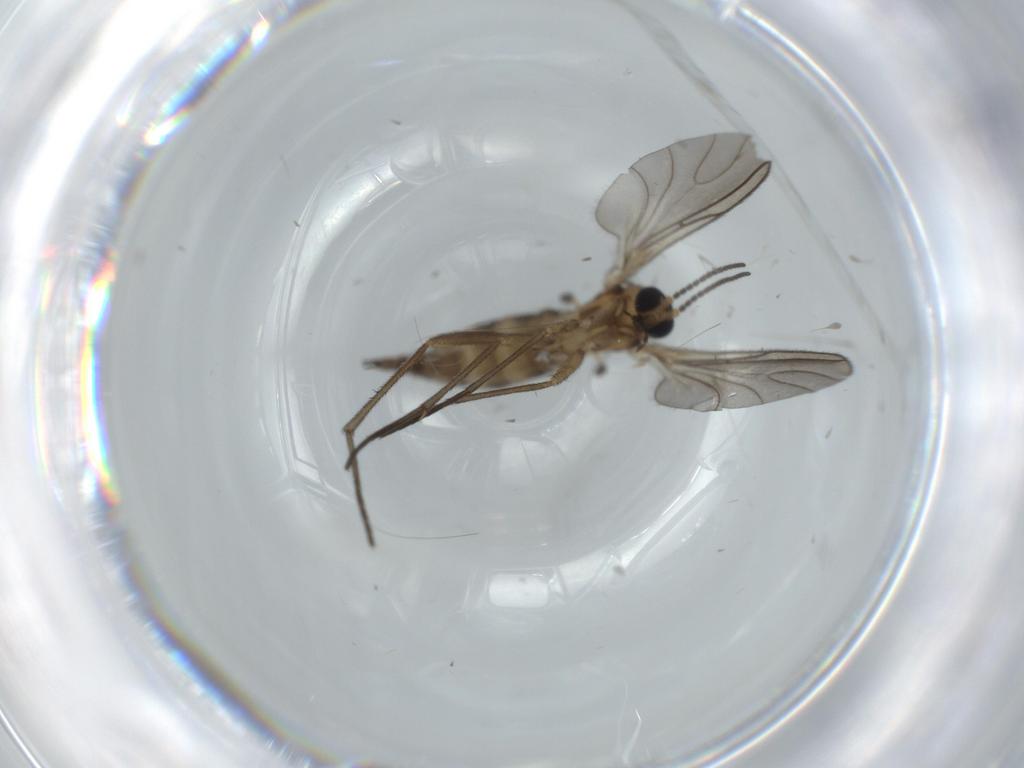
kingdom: Animalia
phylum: Arthropoda
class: Insecta
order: Diptera
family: Sciaridae
